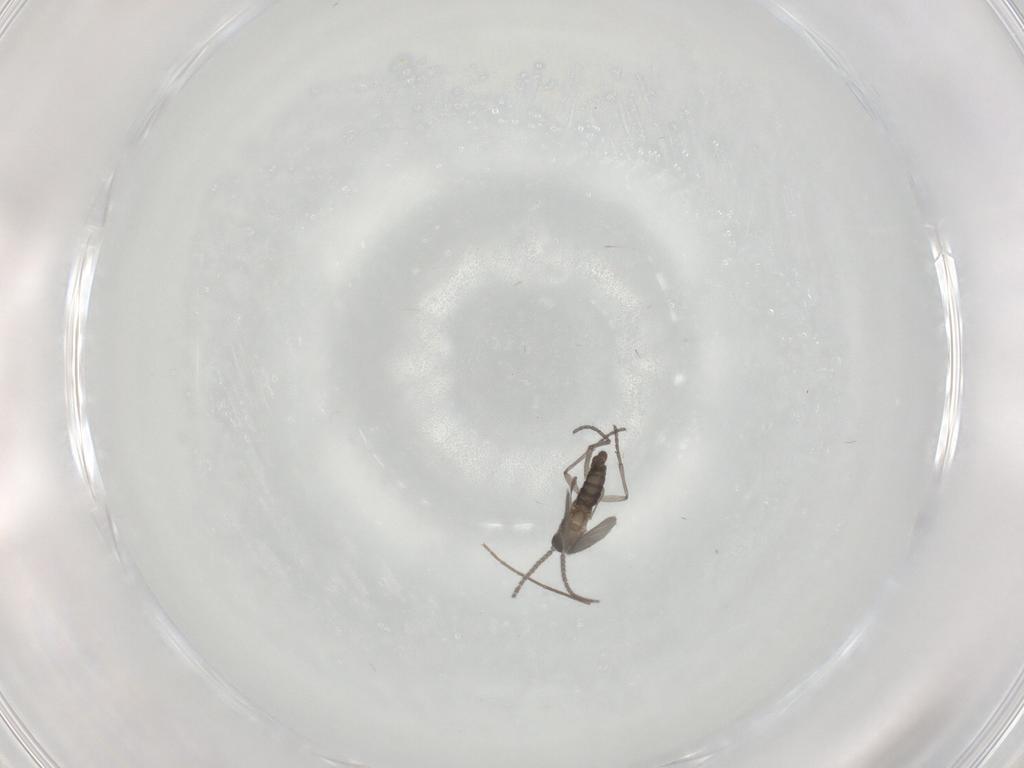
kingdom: Animalia
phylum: Arthropoda
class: Insecta
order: Diptera
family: Sciaridae
